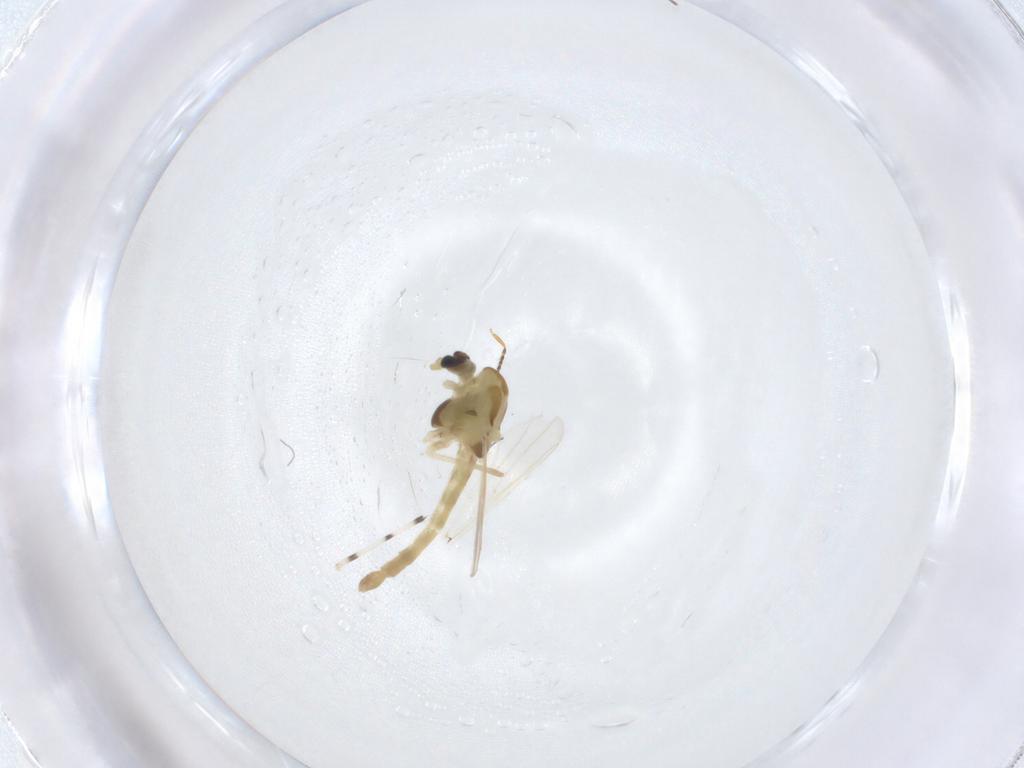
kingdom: Animalia
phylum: Arthropoda
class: Insecta
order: Diptera
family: Chironomidae
